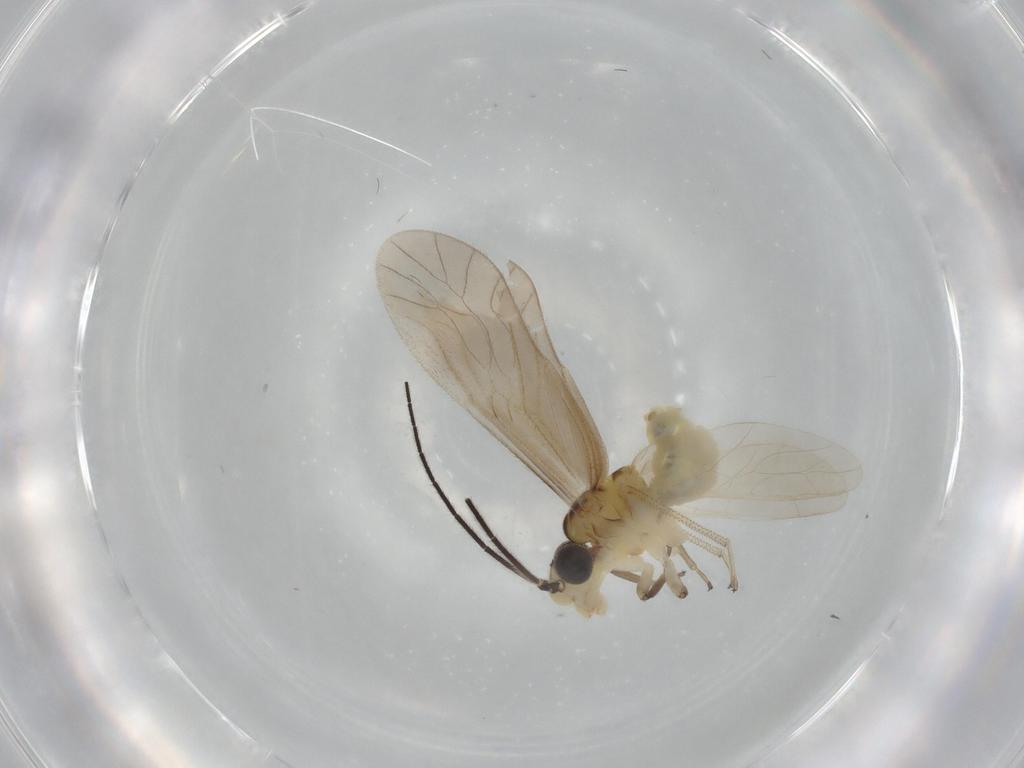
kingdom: Animalia
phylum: Arthropoda
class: Insecta
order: Psocodea
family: Caeciliusidae
